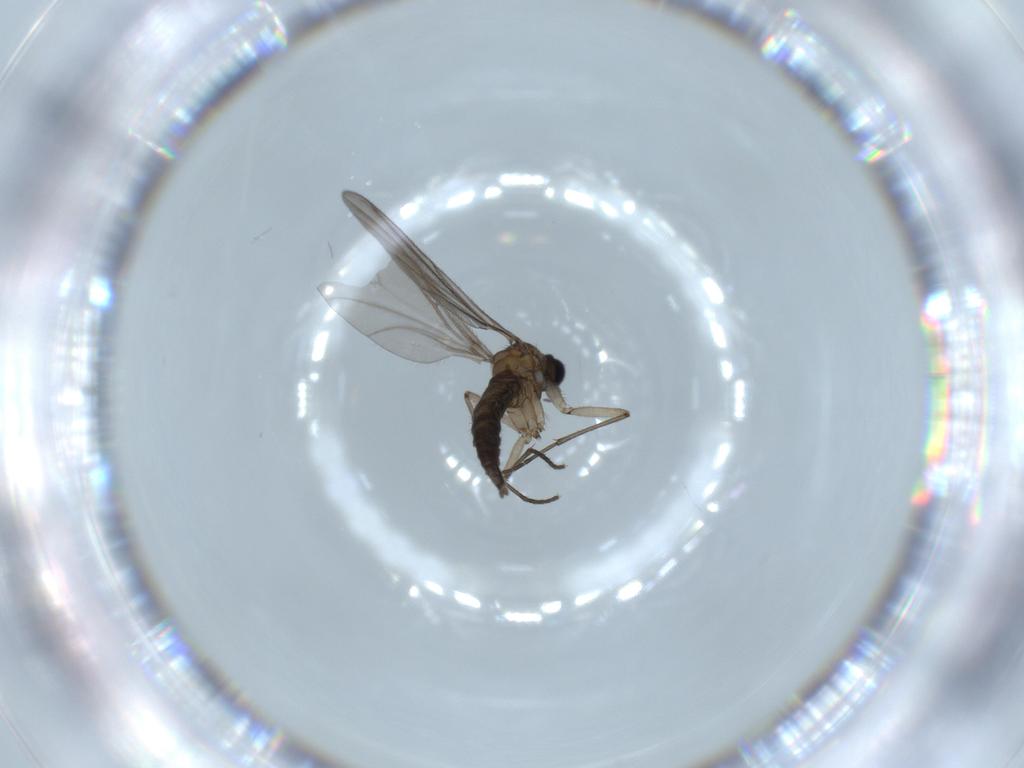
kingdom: Animalia
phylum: Arthropoda
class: Insecta
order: Diptera
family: Sciaridae
